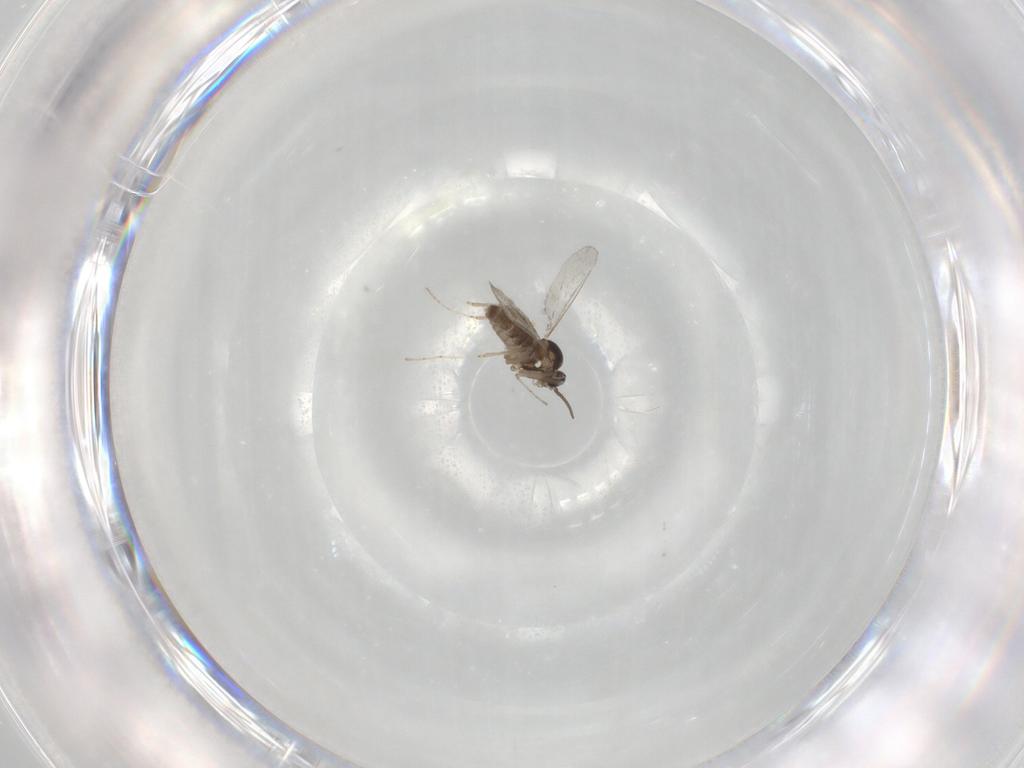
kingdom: Animalia
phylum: Arthropoda
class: Insecta
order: Diptera
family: Cecidomyiidae
